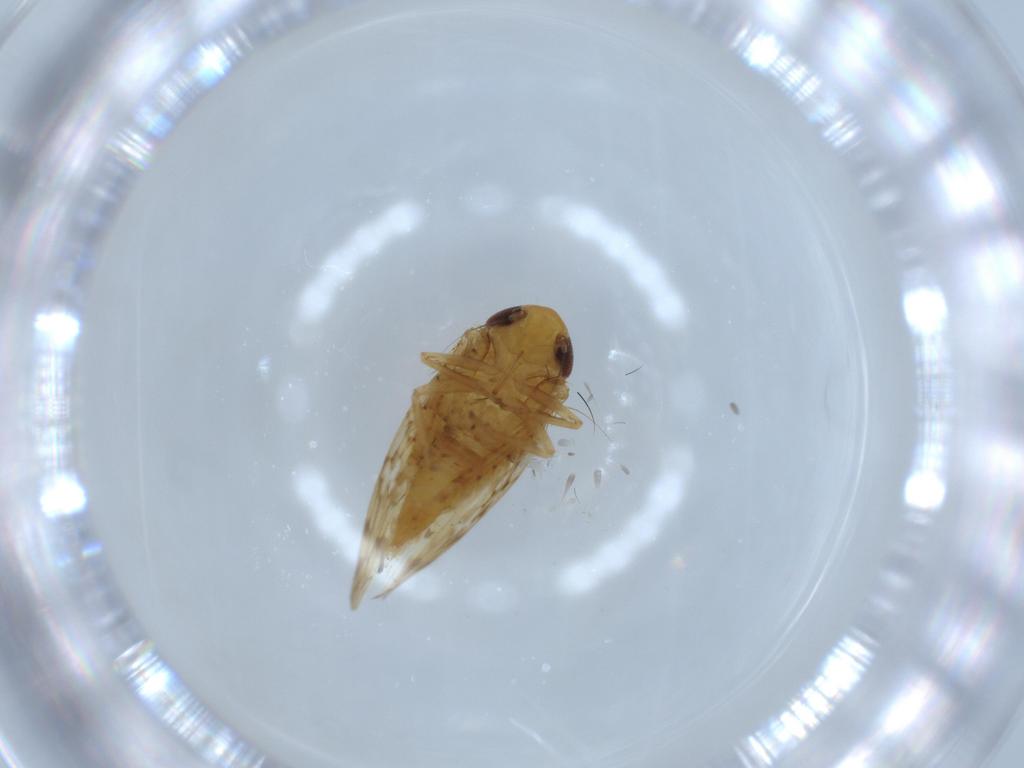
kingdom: Animalia
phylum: Arthropoda
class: Insecta
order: Hemiptera
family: Cicadellidae
